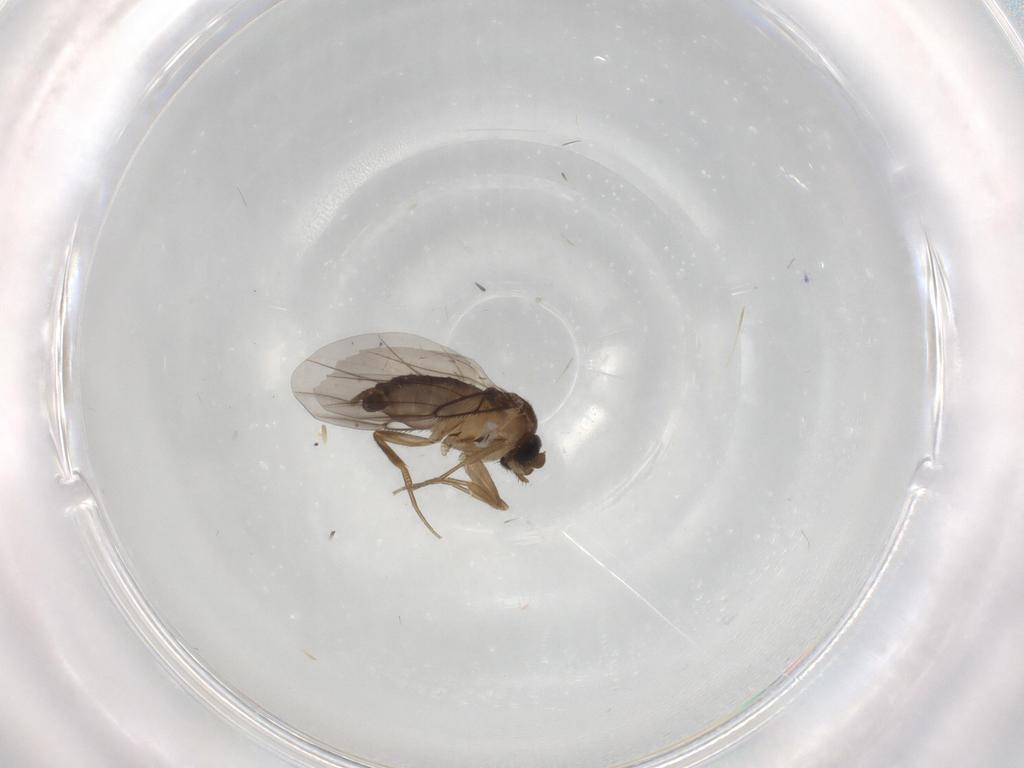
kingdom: Animalia
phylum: Arthropoda
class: Insecta
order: Diptera
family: Phoridae
